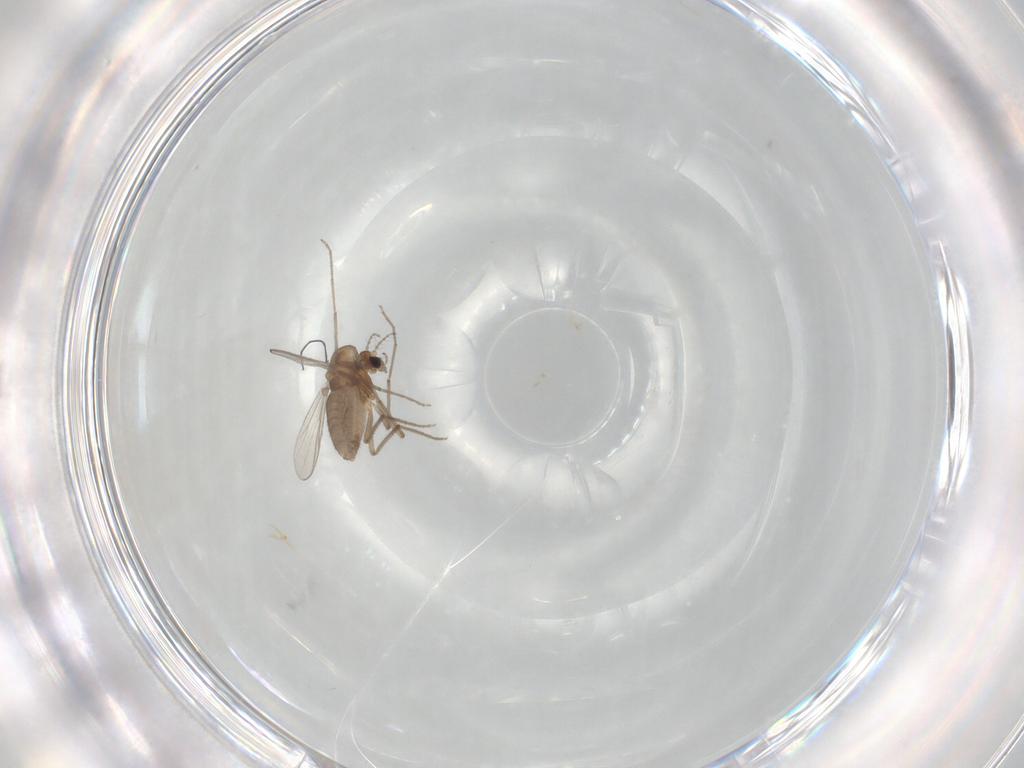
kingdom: Animalia
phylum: Arthropoda
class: Insecta
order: Diptera
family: Chironomidae
